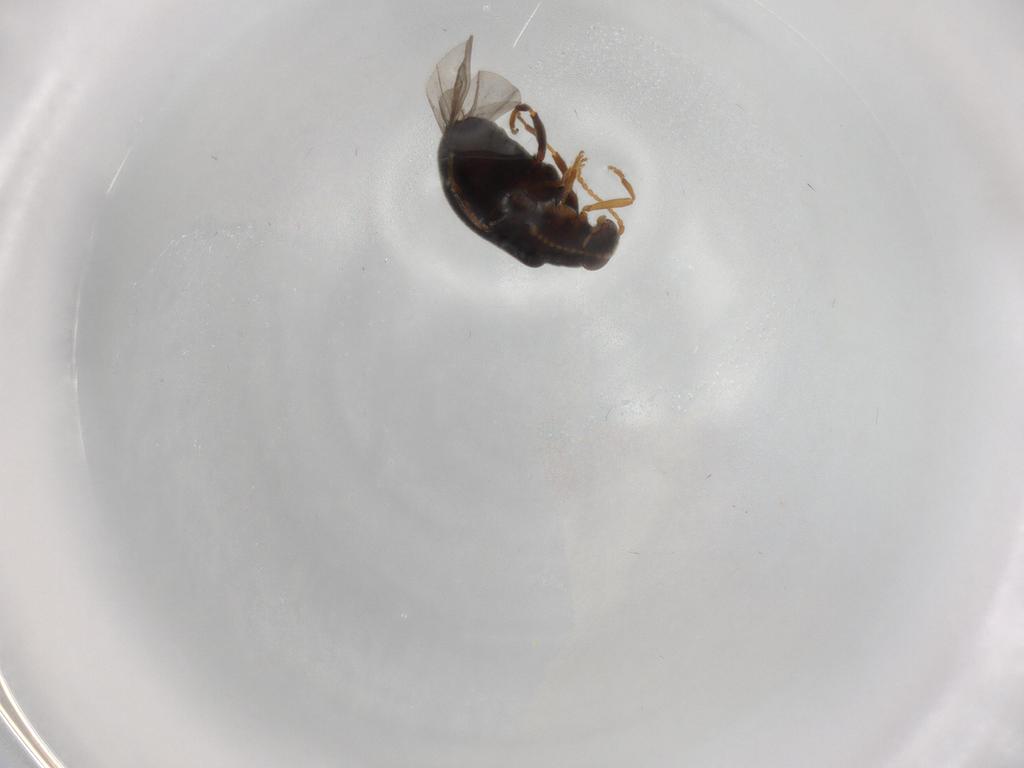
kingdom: Animalia
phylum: Arthropoda
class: Insecta
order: Coleoptera
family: Aderidae
